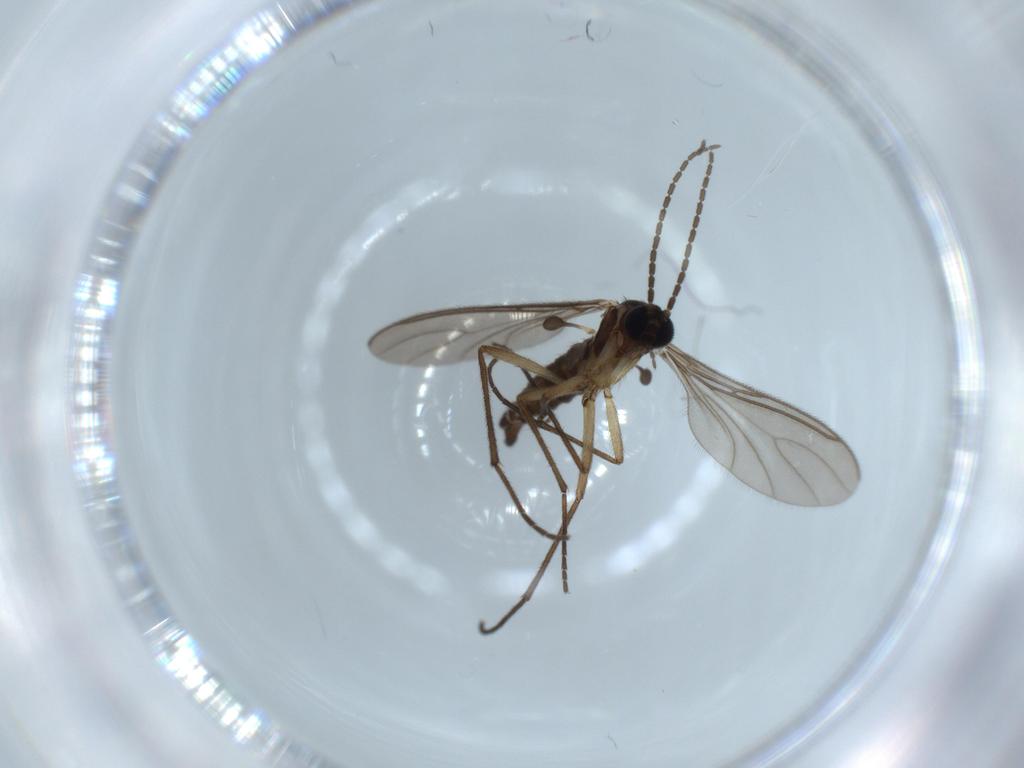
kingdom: Animalia
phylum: Arthropoda
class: Insecta
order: Diptera
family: Sciaridae
